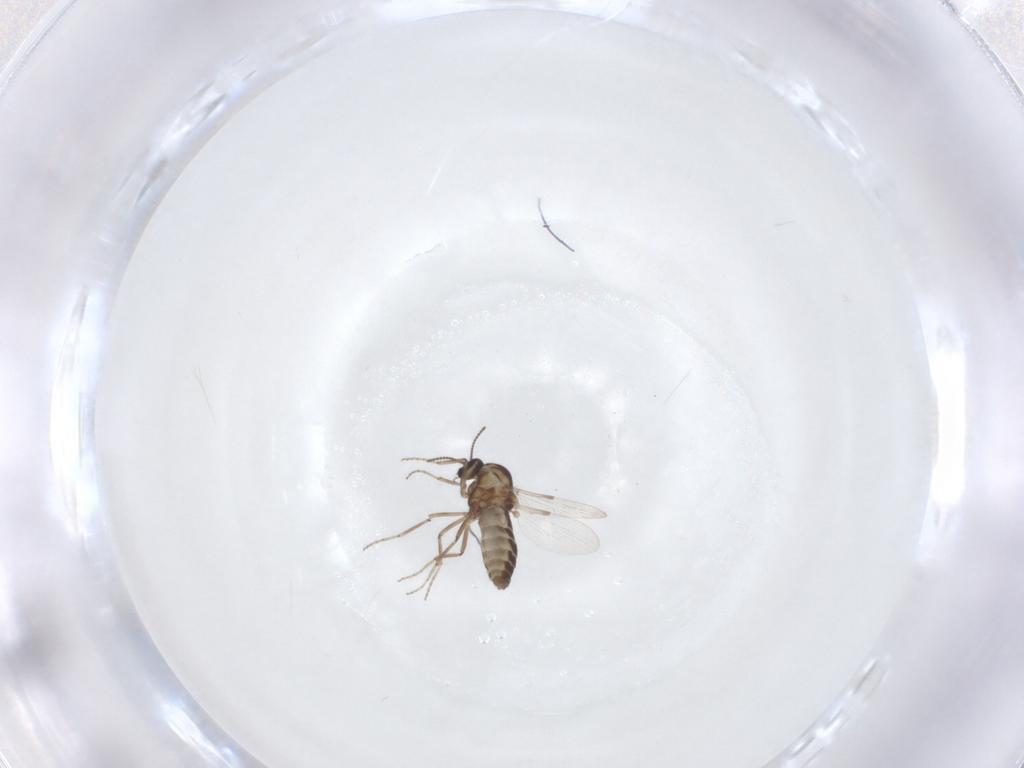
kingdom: Animalia
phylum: Arthropoda
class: Insecta
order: Diptera
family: Ceratopogonidae
